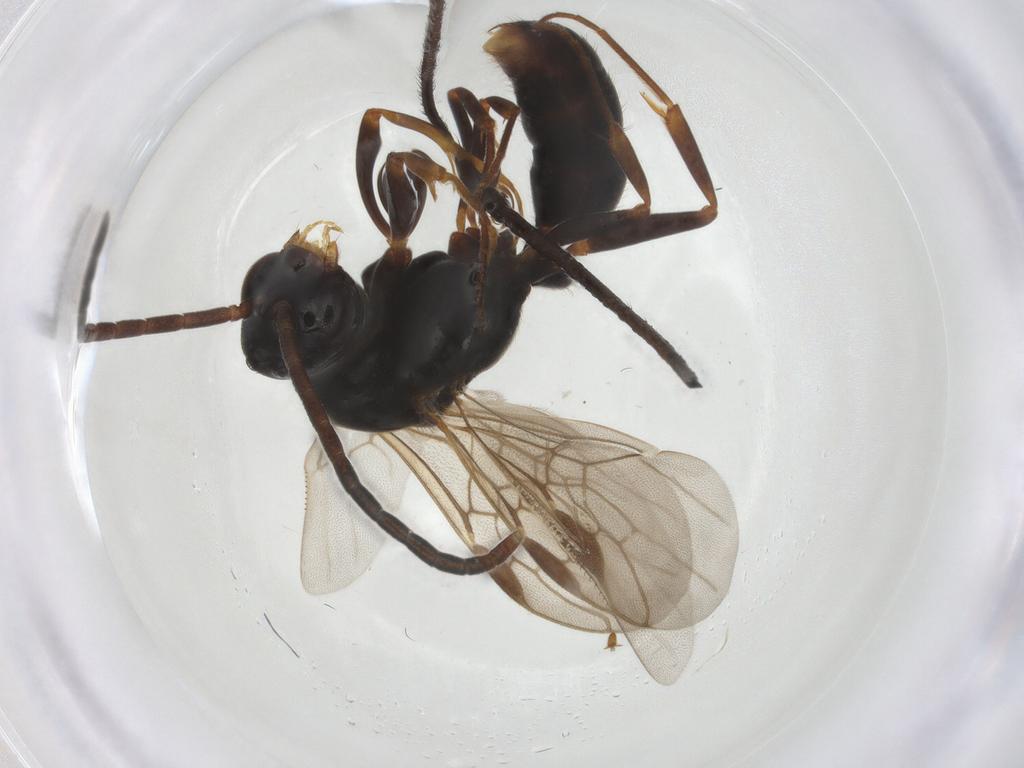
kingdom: Animalia
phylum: Arthropoda
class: Insecta
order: Hymenoptera
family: Formicidae
